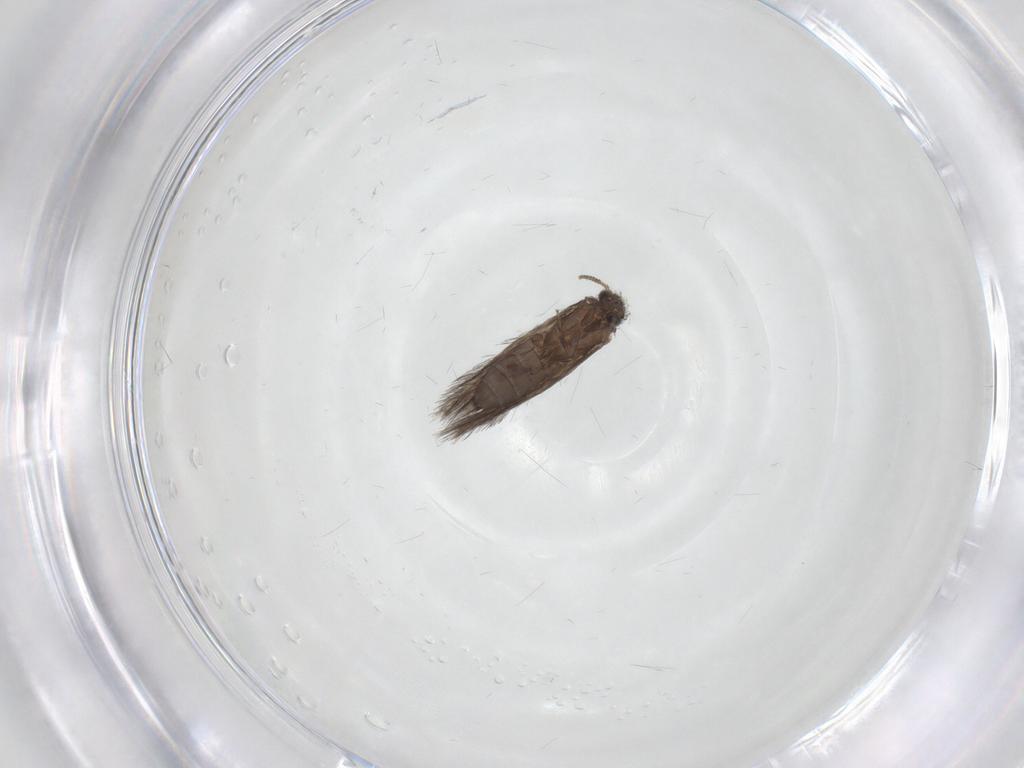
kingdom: Animalia
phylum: Arthropoda
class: Insecta
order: Trichoptera
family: Hydroptilidae
